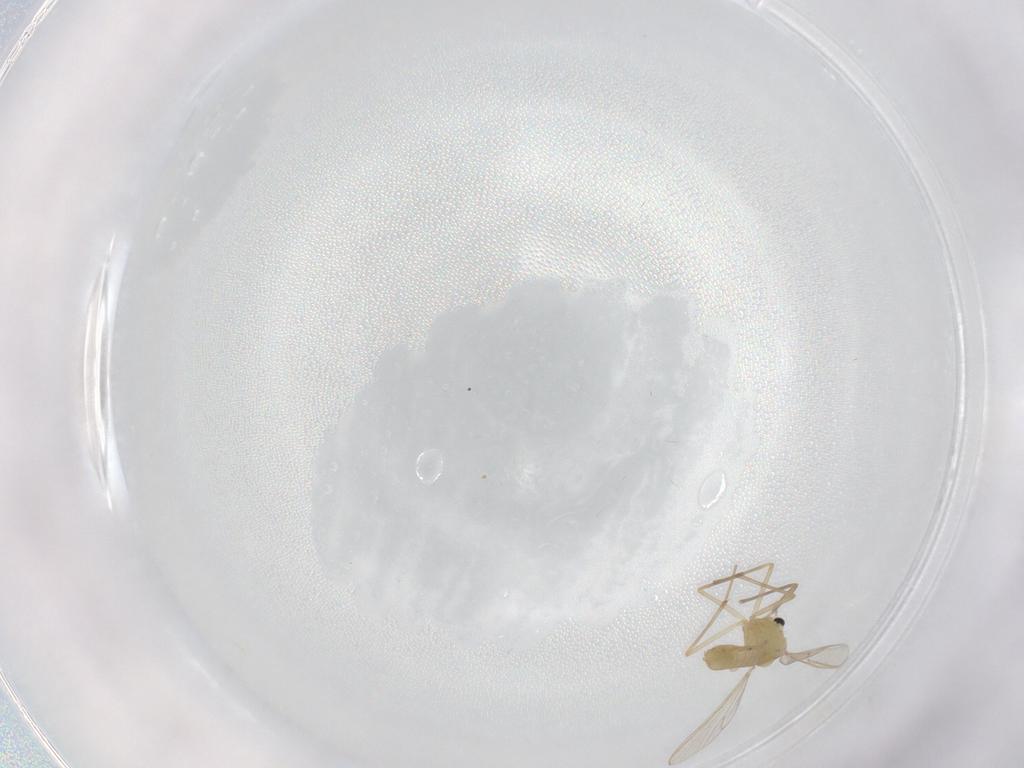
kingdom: Animalia
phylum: Arthropoda
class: Insecta
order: Diptera
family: Chironomidae
